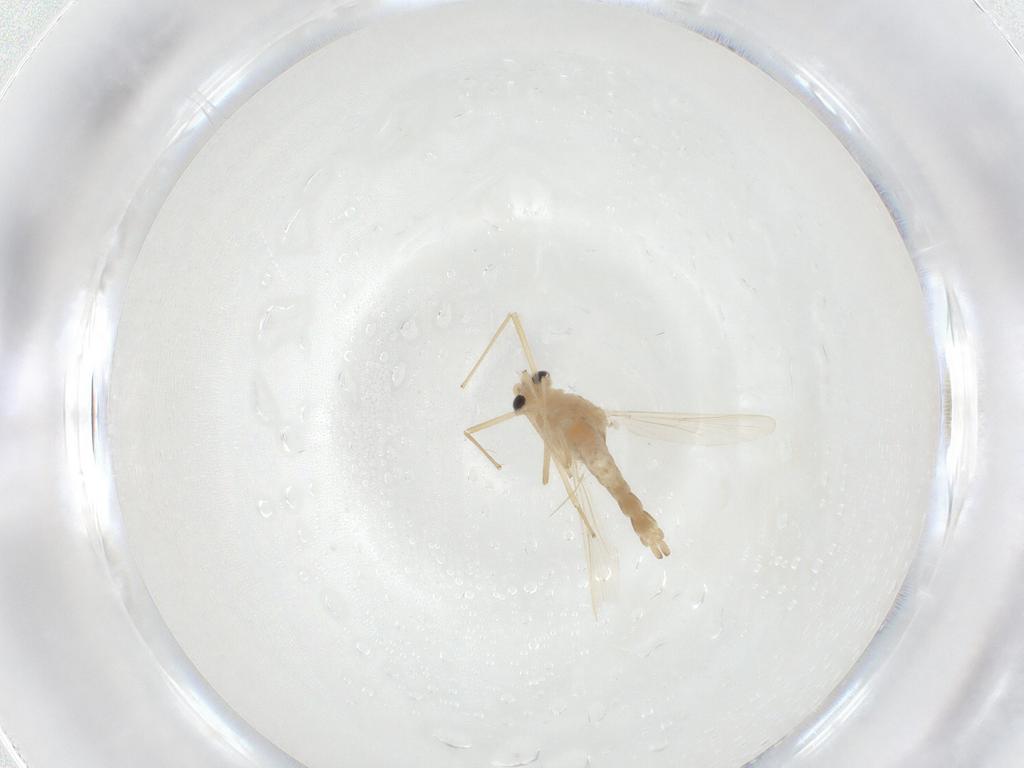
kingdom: Animalia
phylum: Arthropoda
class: Insecta
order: Diptera
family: Chironomidae
